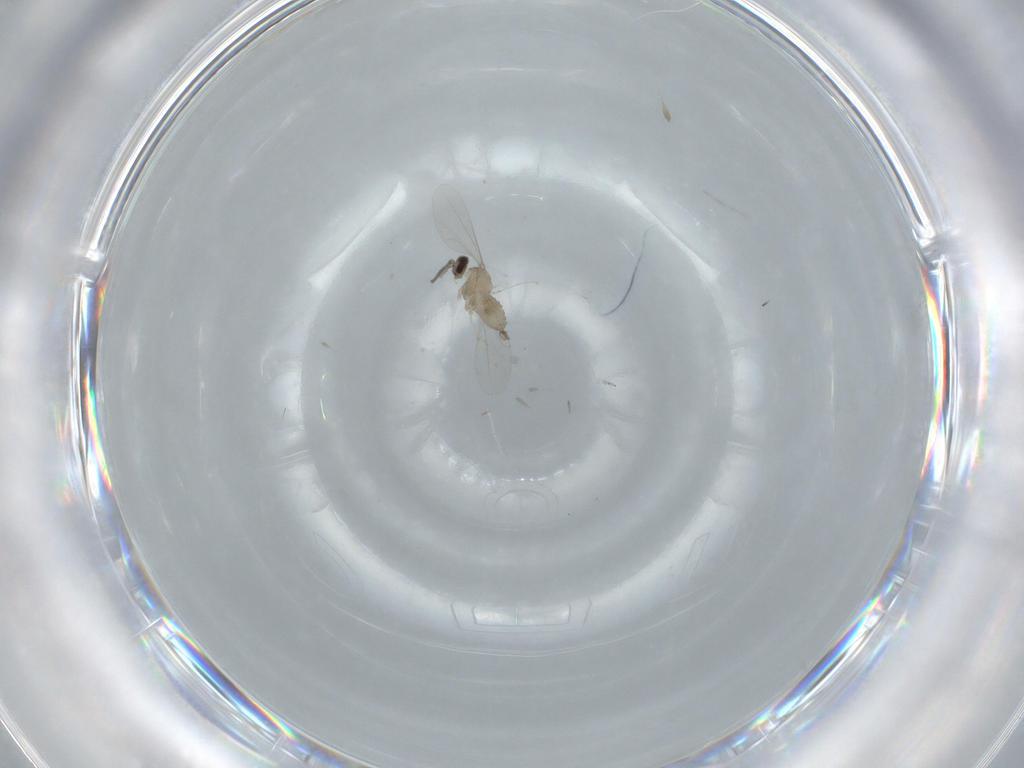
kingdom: Animalia
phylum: Arthropoda
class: Insecta
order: Diptera
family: Cecidomyiidae
